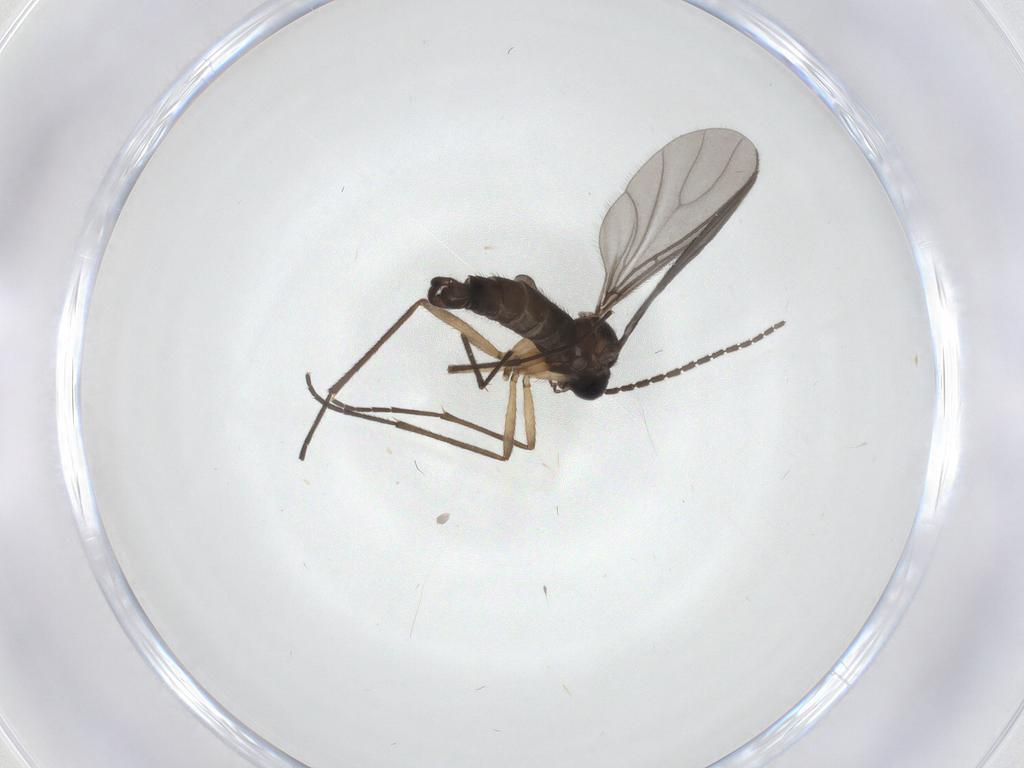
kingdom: Animalia
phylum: Arthropoda
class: Insecta
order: Diptera
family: Sciaridae
